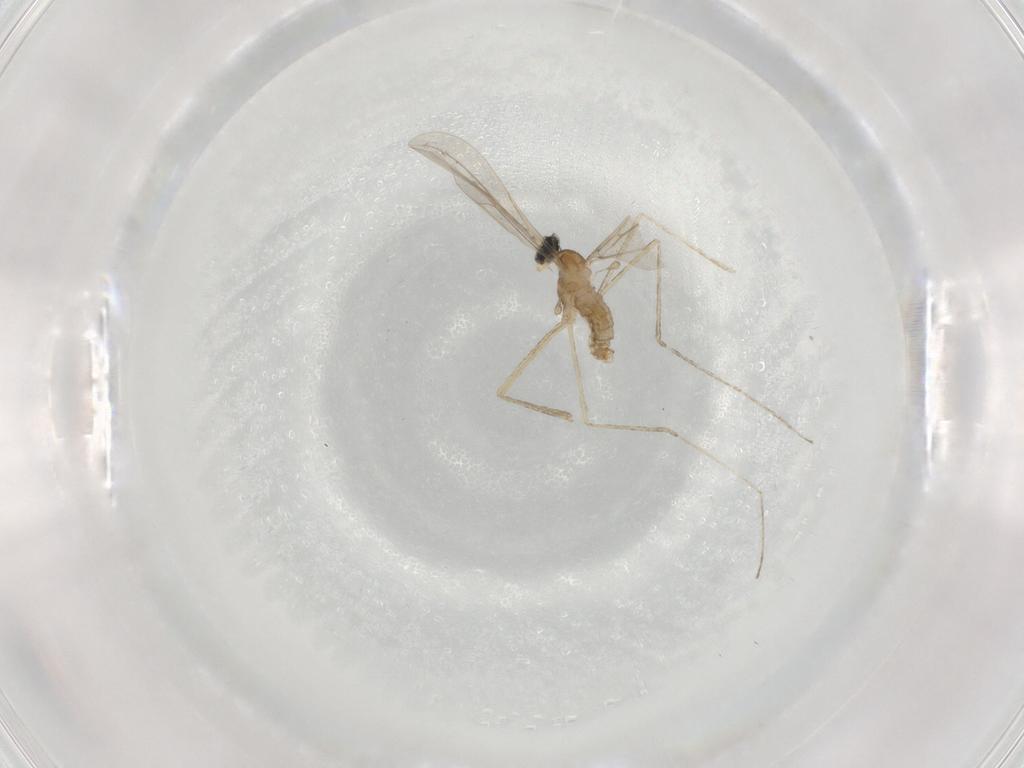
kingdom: Animalia
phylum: Arthropoda
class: Insecta
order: Diptera
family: Cecidomyiidae
